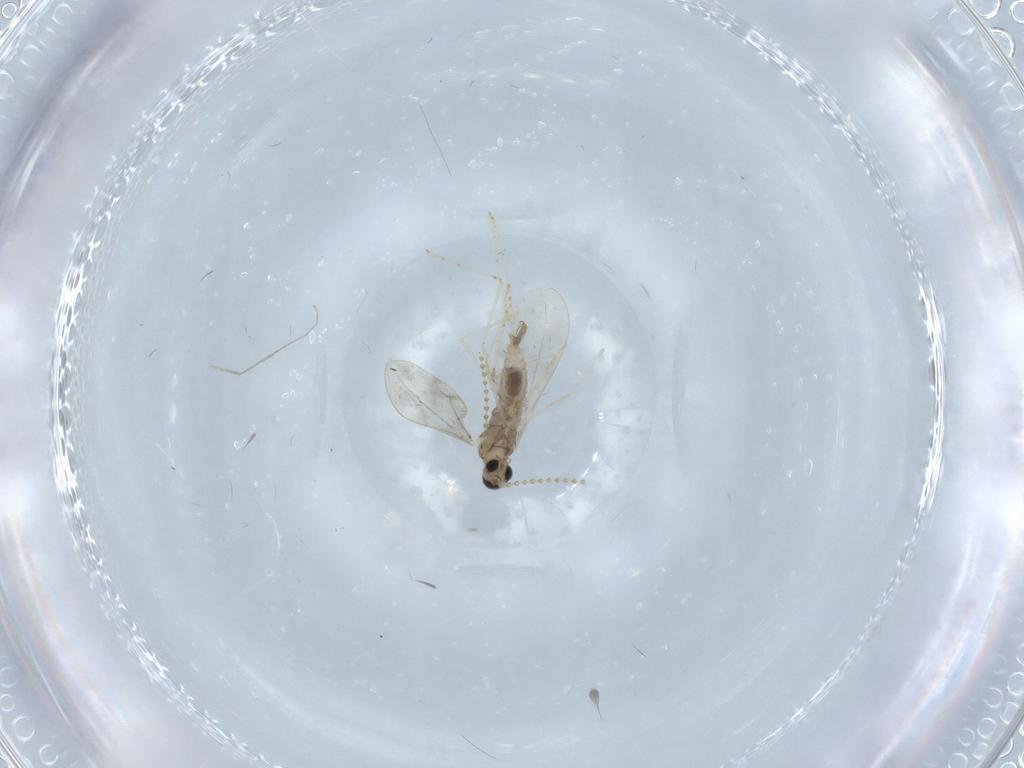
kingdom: Animalia
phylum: Arthropoda
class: Insecta
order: Diptera
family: Cecidomyiidae
